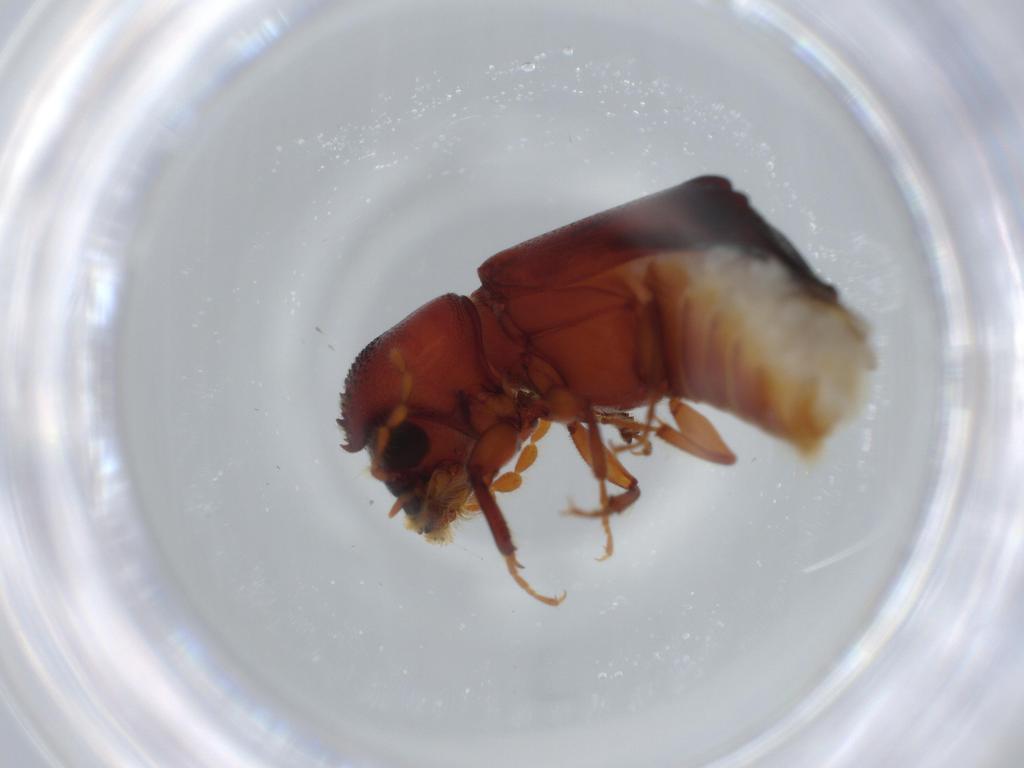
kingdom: Animalia
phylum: Arthropoda
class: Insecta
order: Coleoptera
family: Bostrichidae
